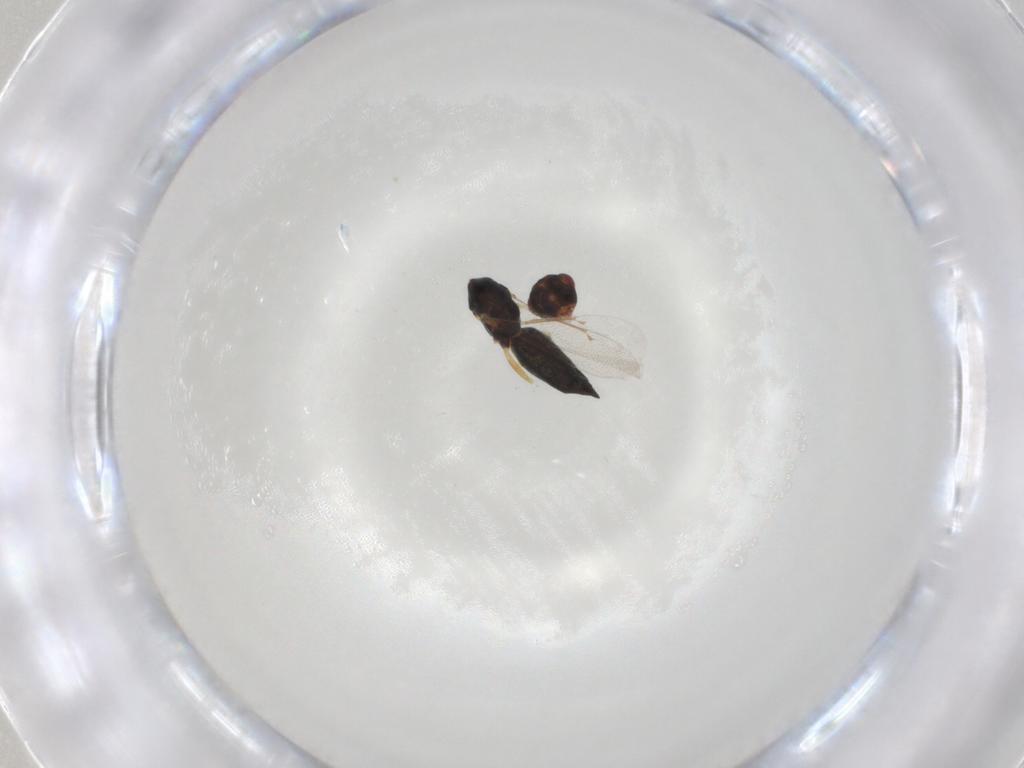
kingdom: Animalia
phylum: Arthropoda
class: Insecta
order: Hymenoptera
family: Eulophidae
